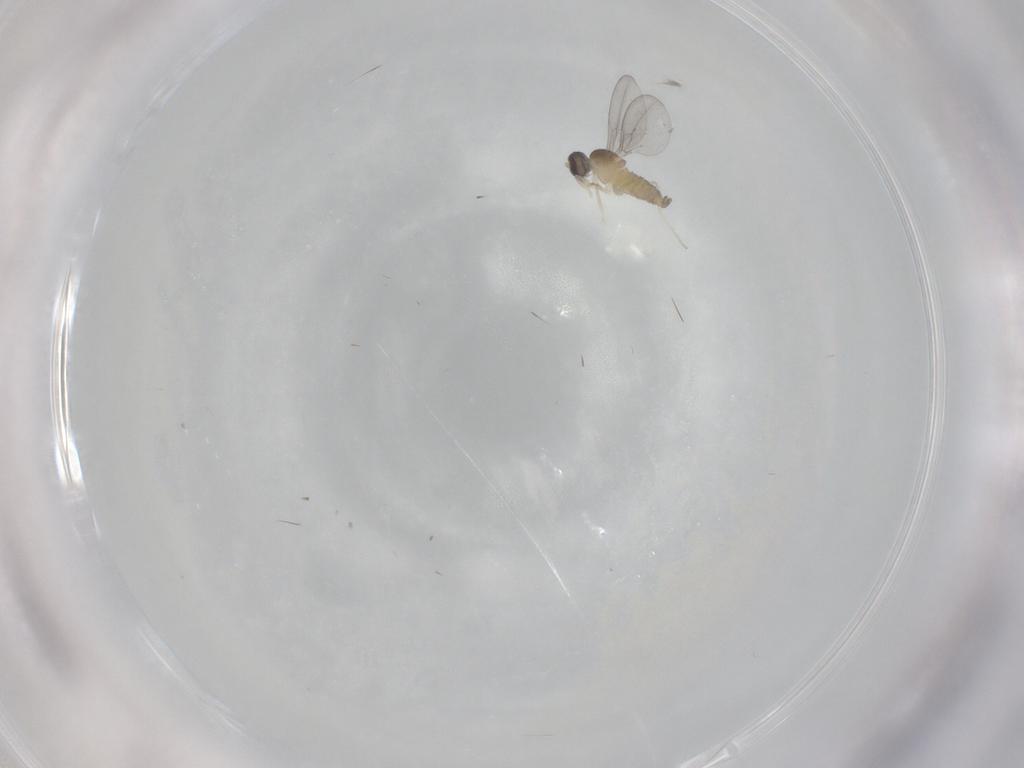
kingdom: Animalia
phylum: Arthropoda
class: Insecta
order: Diptera
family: Cecidomyiidae
